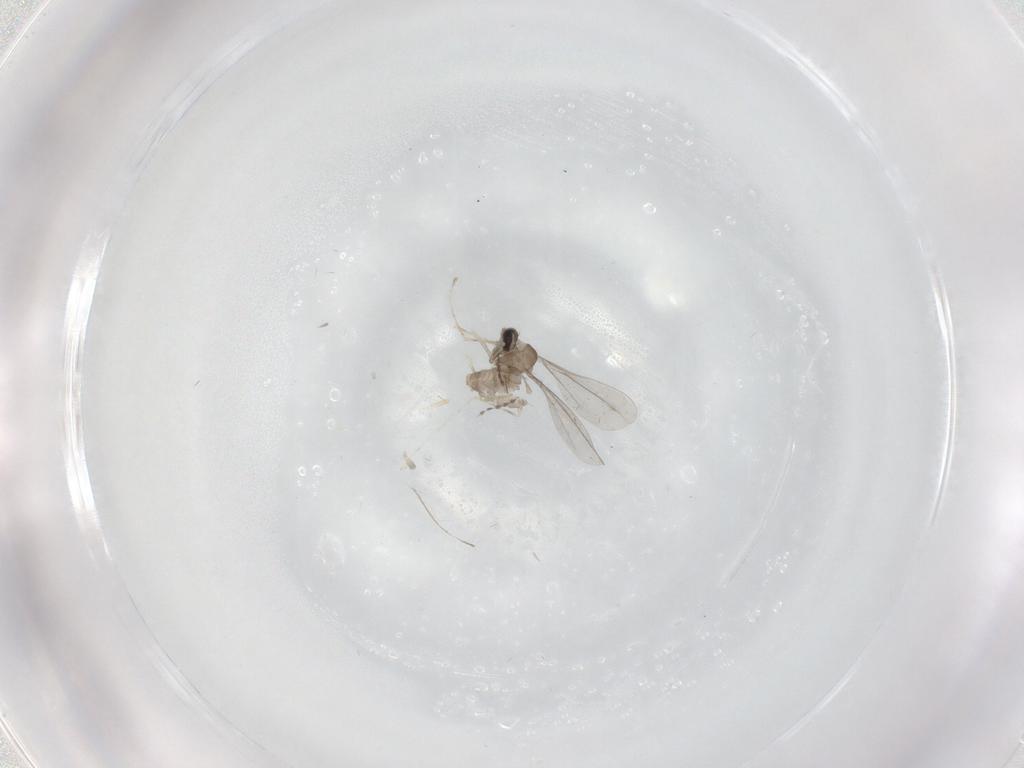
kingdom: Animalia
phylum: Arthropoda
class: Insecta
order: Diptera
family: Cecidomyiidae
